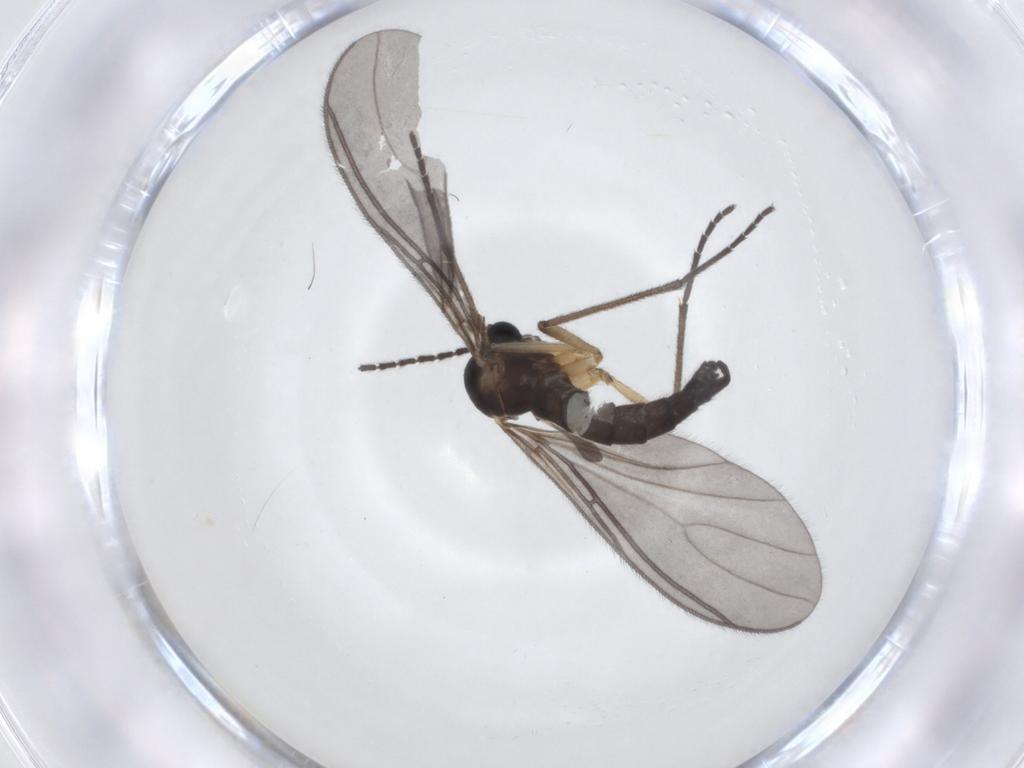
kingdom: Animalia
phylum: Arthropoda
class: Insecta
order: Diptera
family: Sciaridae
